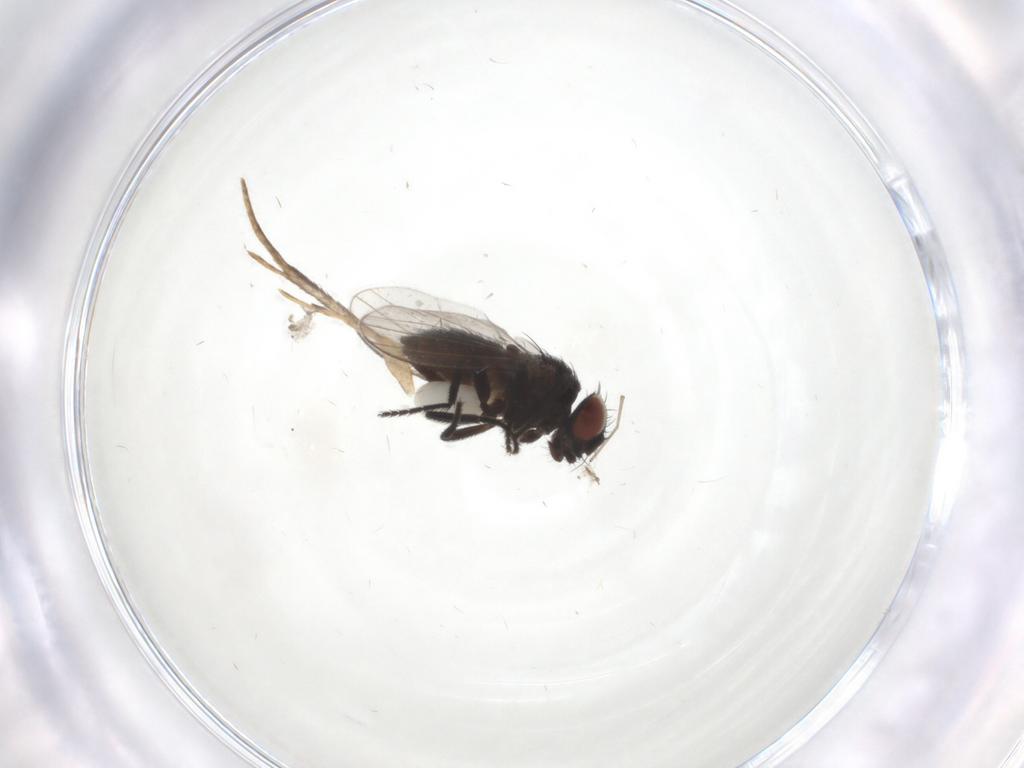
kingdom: Animalia
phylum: Arthropoda
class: Insecta
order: Diptera
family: Milichiidae
